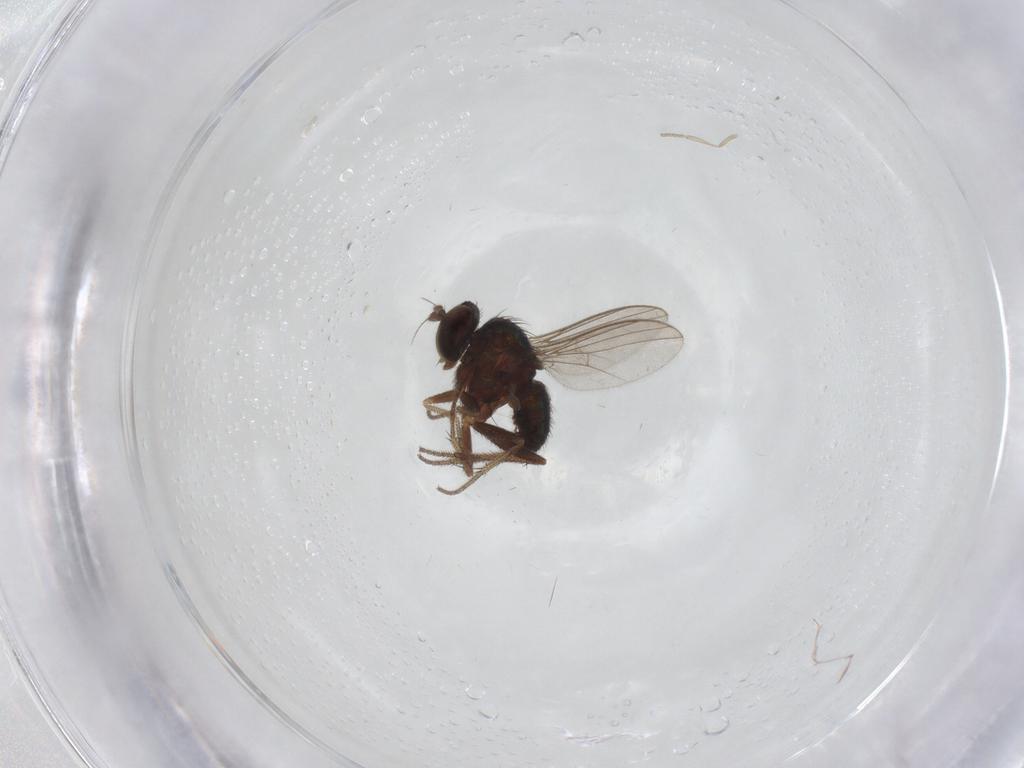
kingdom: Animalia
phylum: Arthropoda
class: Insecta
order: Diptera
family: Dolichopodidae
